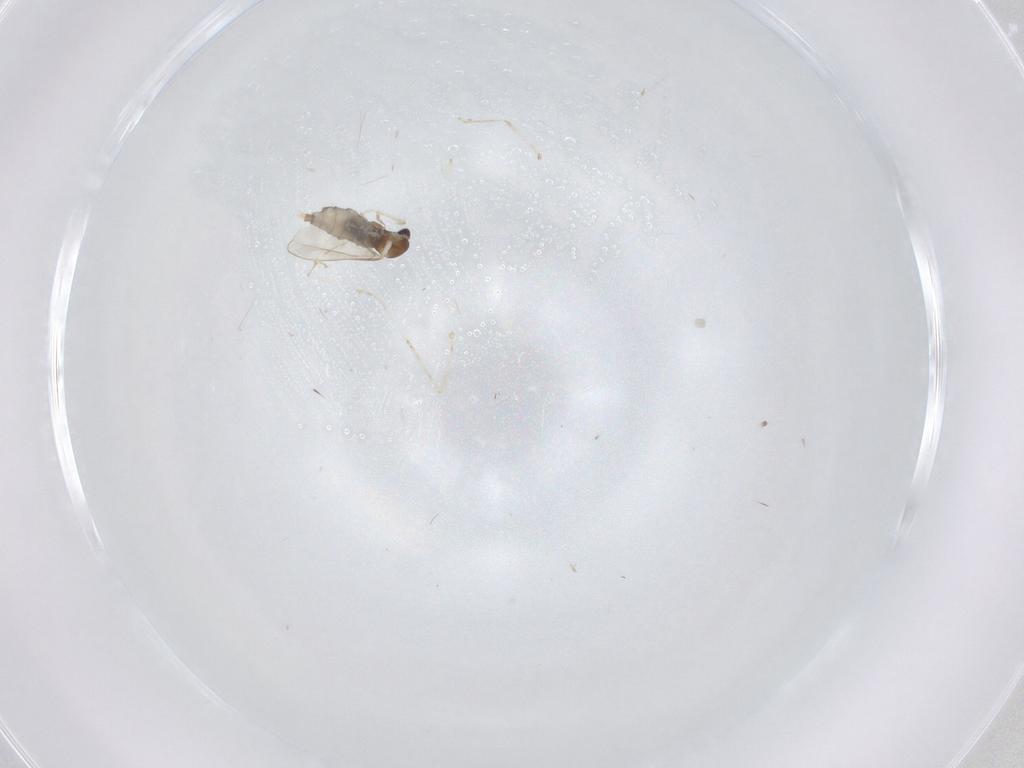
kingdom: Animalia
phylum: Arthropoda
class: Insecta
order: Diptera
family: Cecidomyiidae
